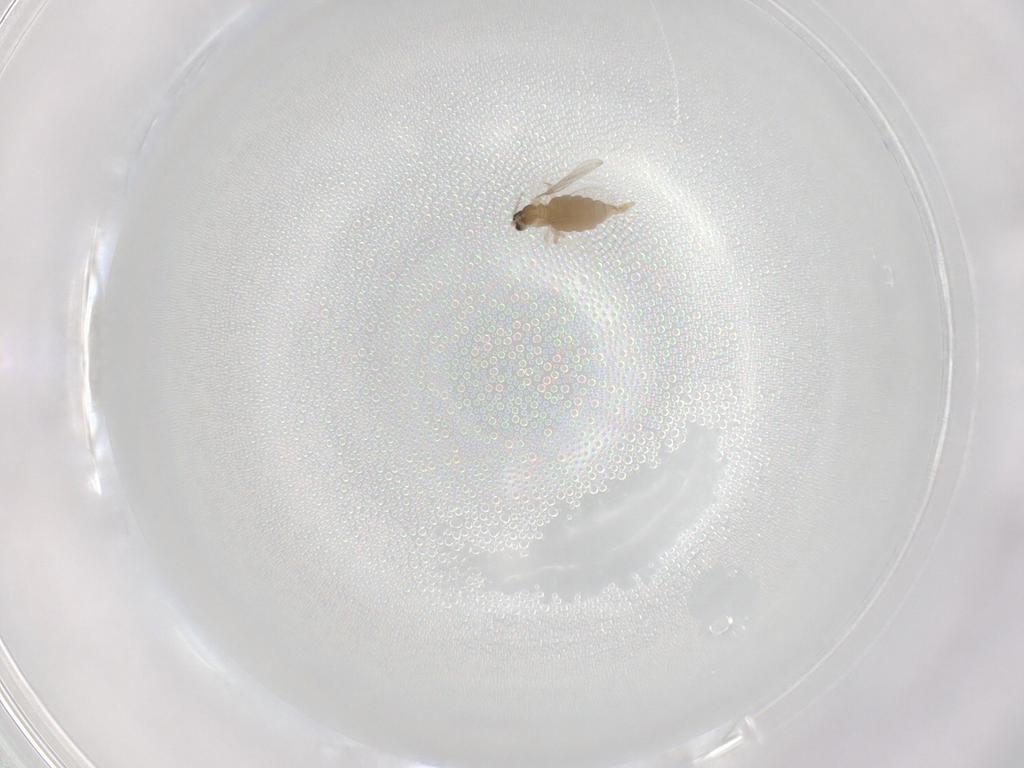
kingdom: Animalia
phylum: Arthropoda
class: Insecta
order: Diptera
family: Cecidomyiidae
